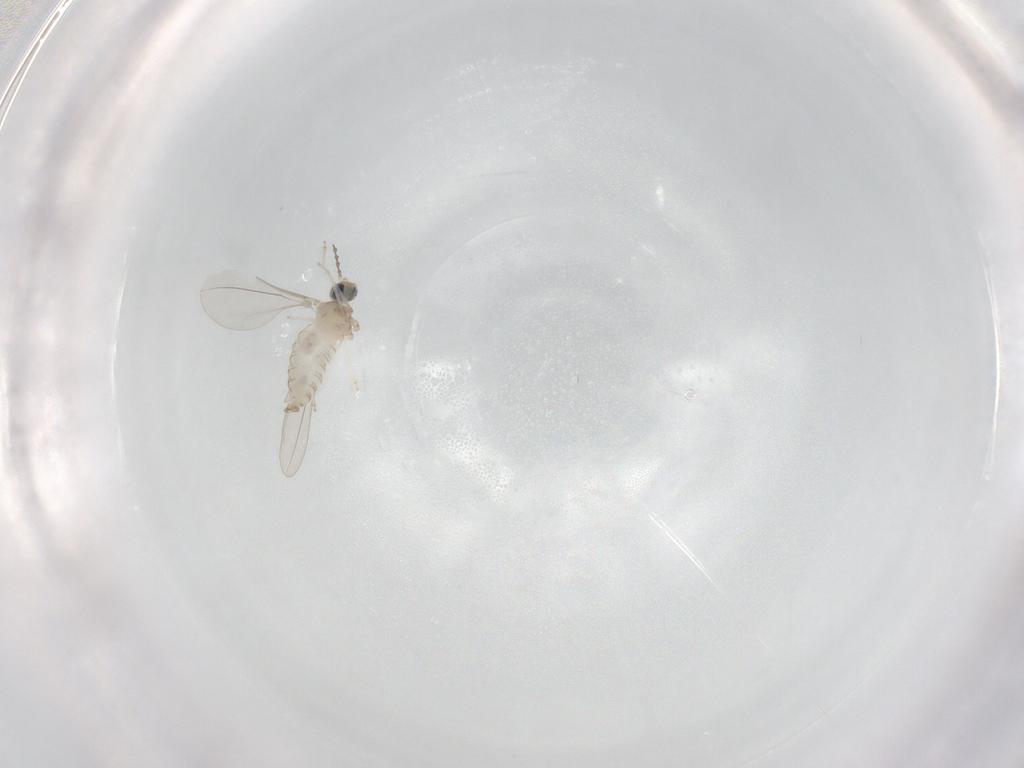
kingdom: Animalia
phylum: Arthropoda
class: Insecta
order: Diptera
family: Cecidomyiidae
